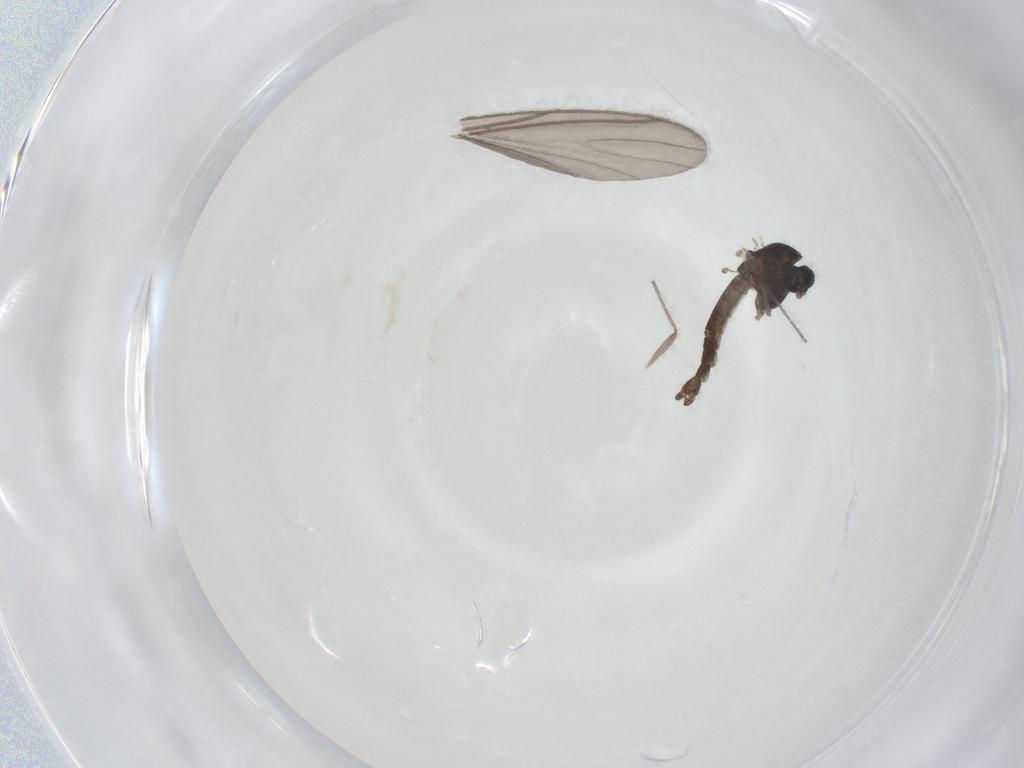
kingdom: Animalia
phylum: Arthropoda
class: Insecta
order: Diptera
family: Chironomidae
